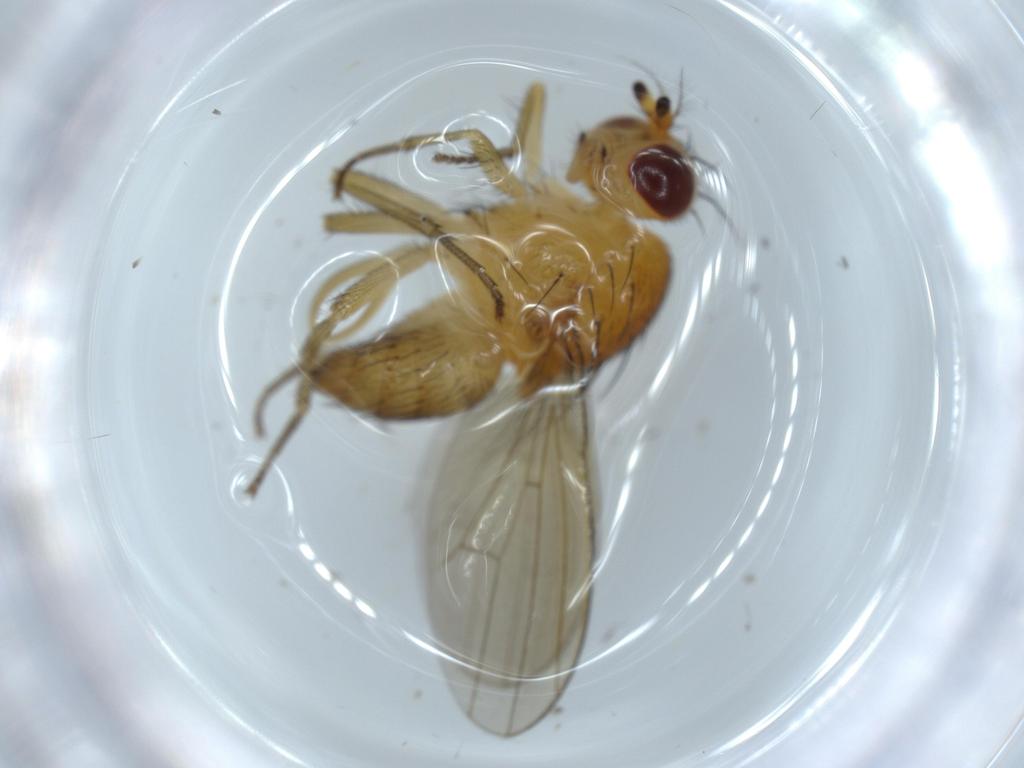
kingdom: Animalia
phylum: Arthropoda
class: Insecta
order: Diptera
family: Lauxaniidae
